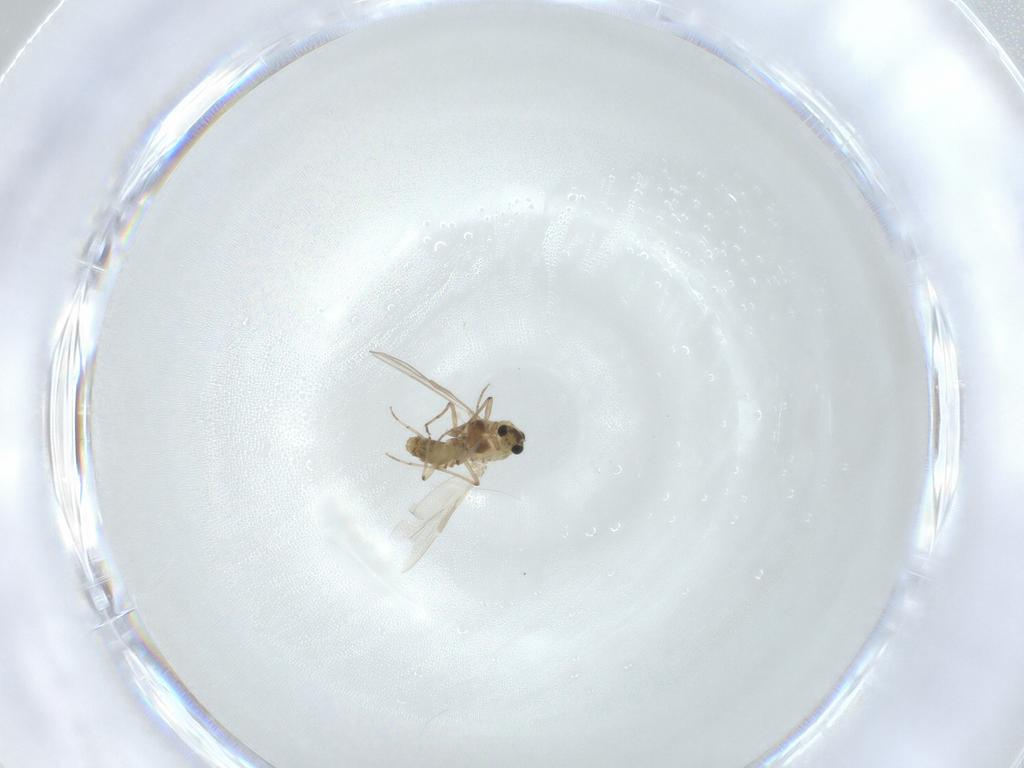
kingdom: Animalia
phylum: Arthropoda
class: Insecta
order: Diptera
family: Chironomidae
